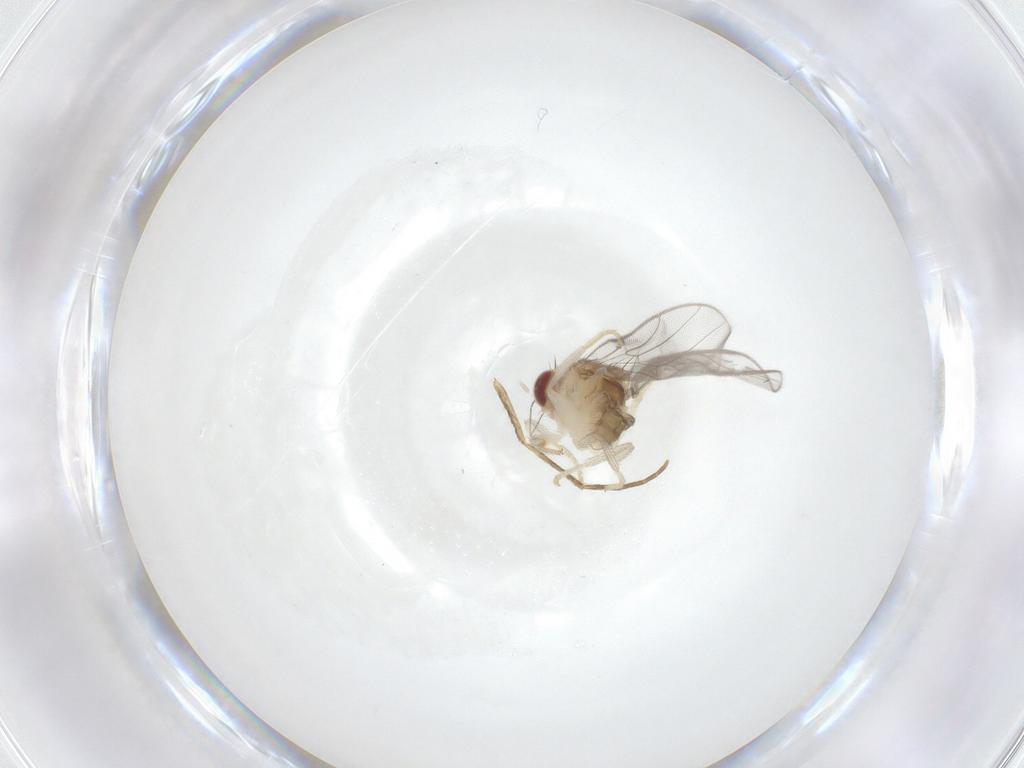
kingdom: Animalia
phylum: Arthropoda
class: Insecta
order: Diptera
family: Chloropidae
